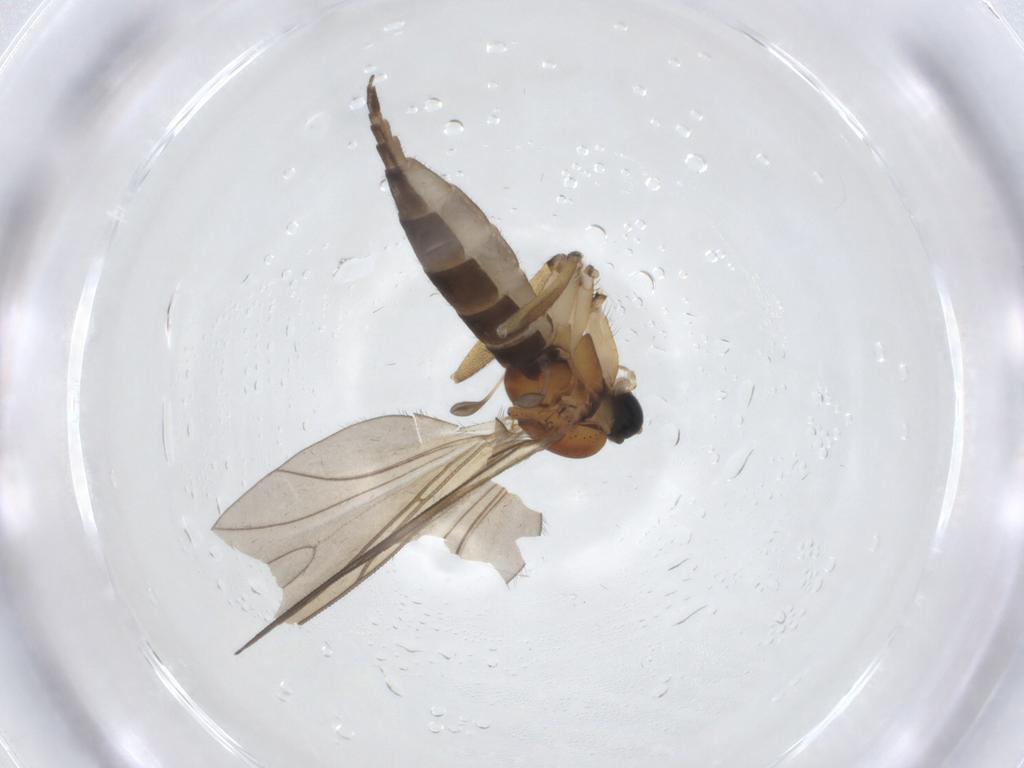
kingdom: Animalia
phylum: Arthropoda
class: Insecta
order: Diptera
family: Sciaridae
